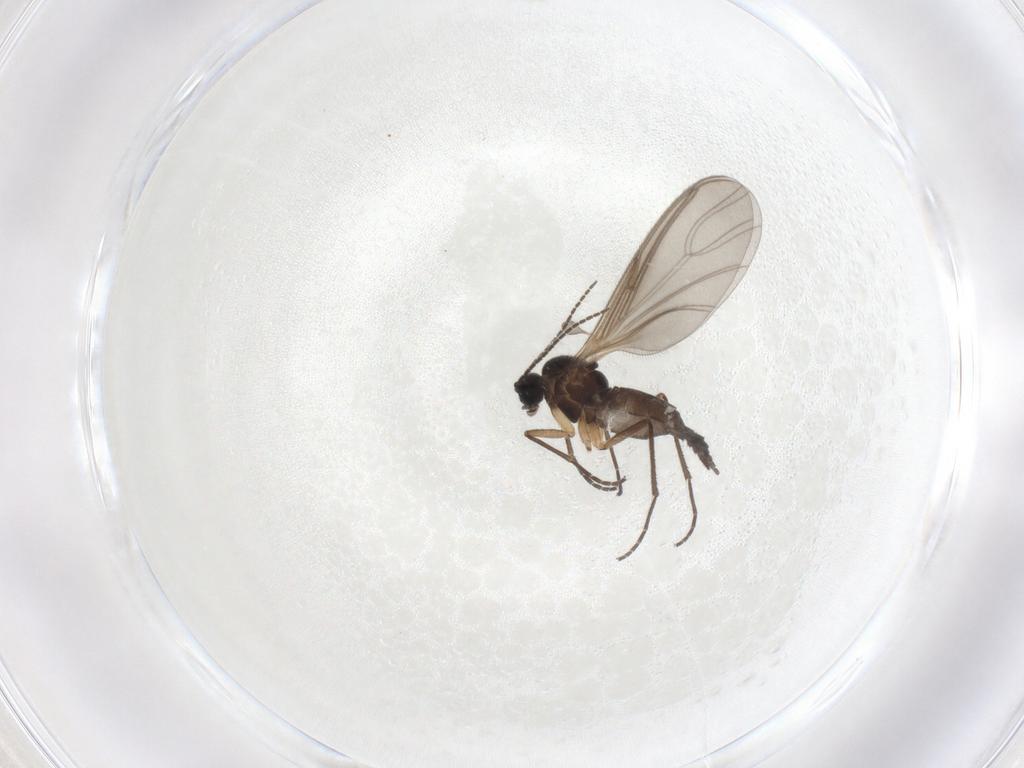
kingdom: Animalia
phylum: Arthropoda
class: Insecta
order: Diptera
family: Sciaridae
